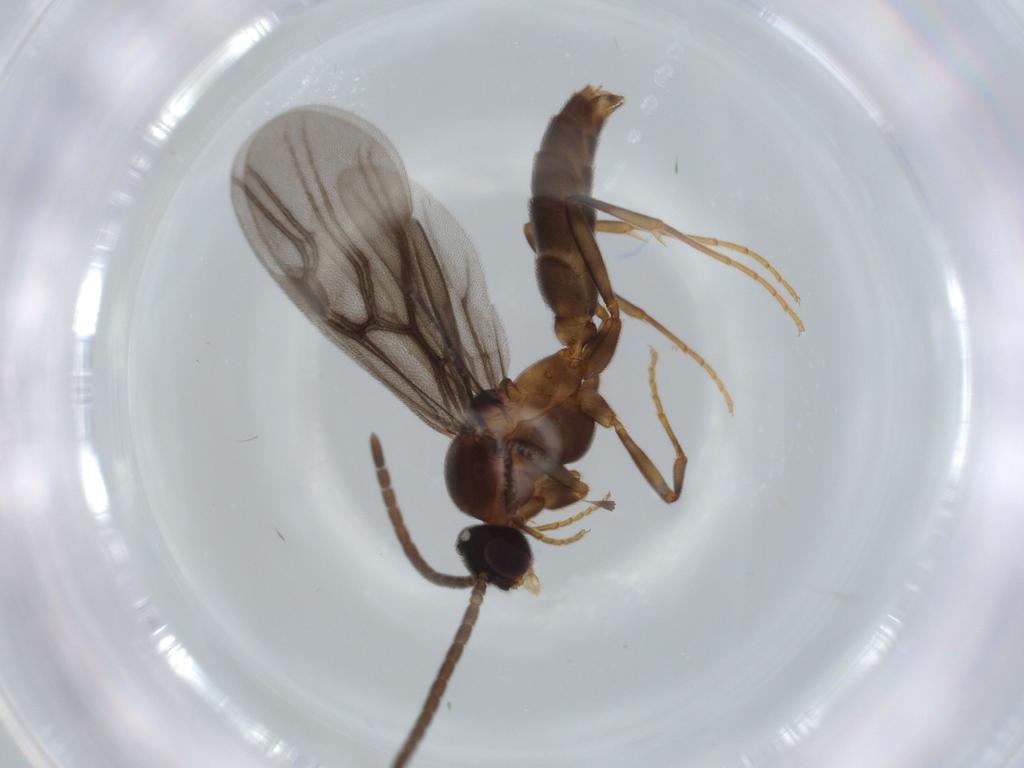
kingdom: Animalia
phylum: Arthropoda
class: Insecta
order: Hymenoptera
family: Formicidae
